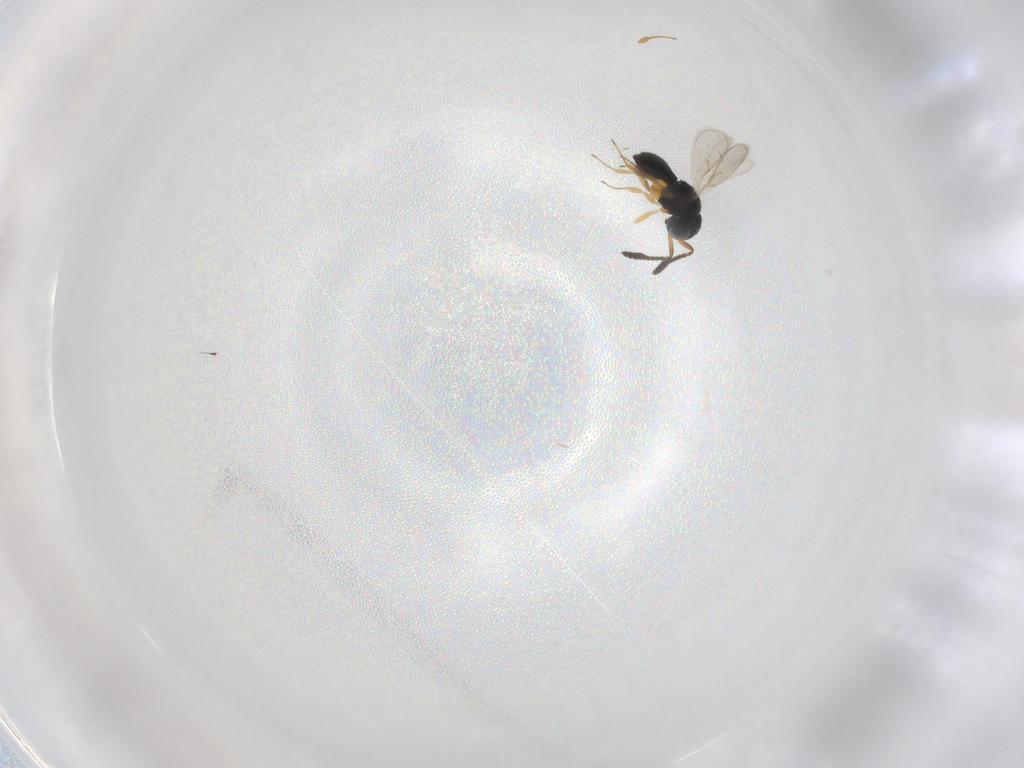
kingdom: Animalia
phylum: Arthropoda
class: Insecta
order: Hymenoptera
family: Scelionidae
